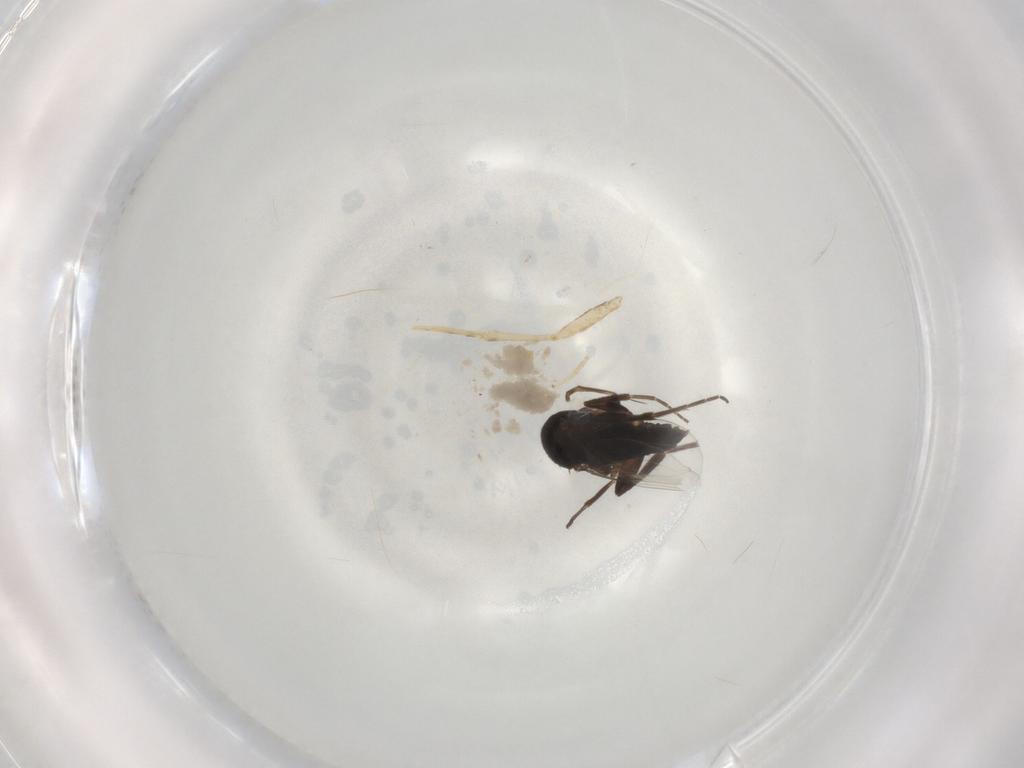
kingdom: Animalia
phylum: Arthropoda
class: Insecta
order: Diptera
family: Phoridae
